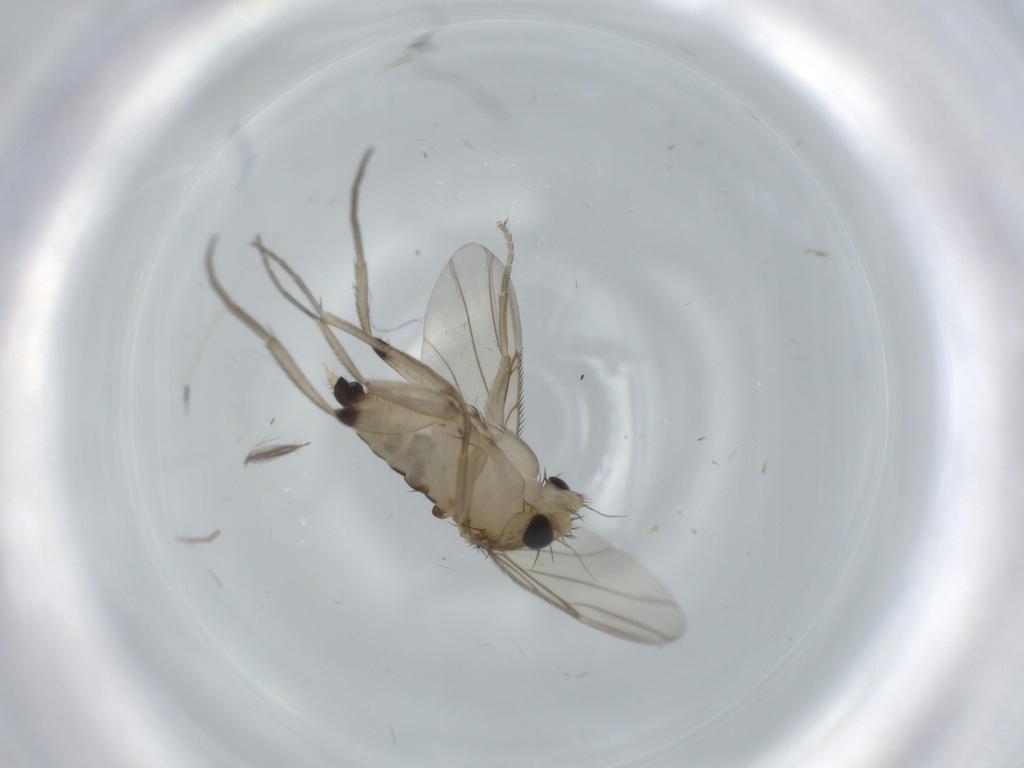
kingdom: Animalia
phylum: Arthropoda
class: Insecta
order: Diptera
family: Ceratopogonidae
